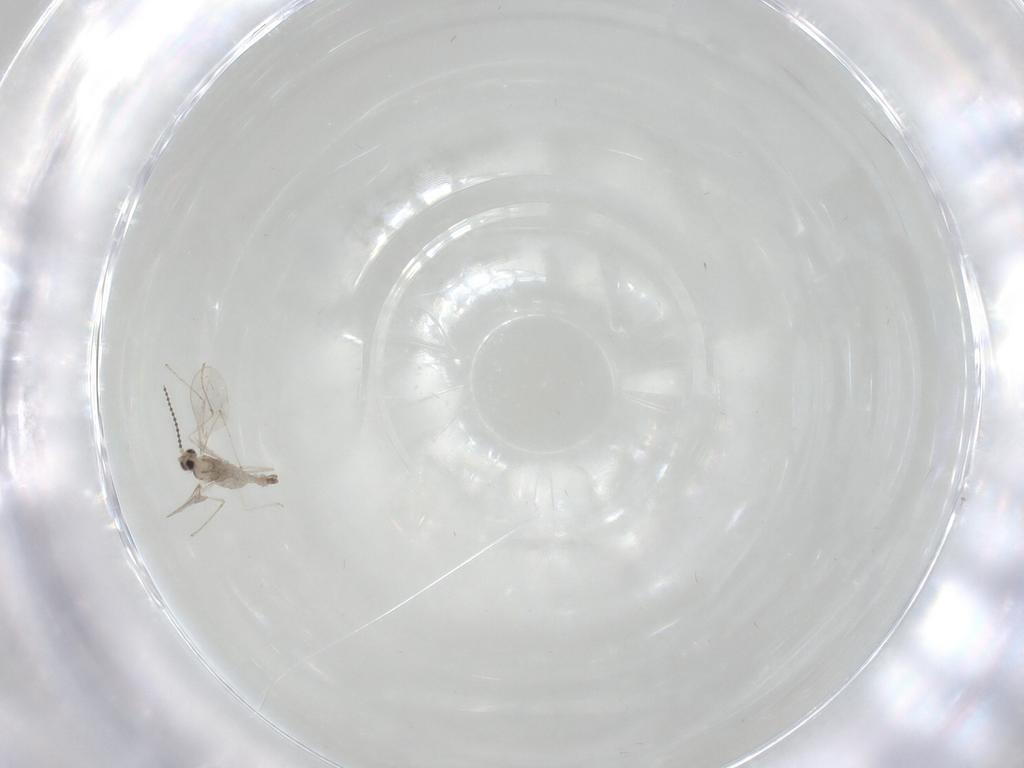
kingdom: Animalia
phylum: Arthropoda
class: Insecta
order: Diptera
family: Cecidomyiidae
